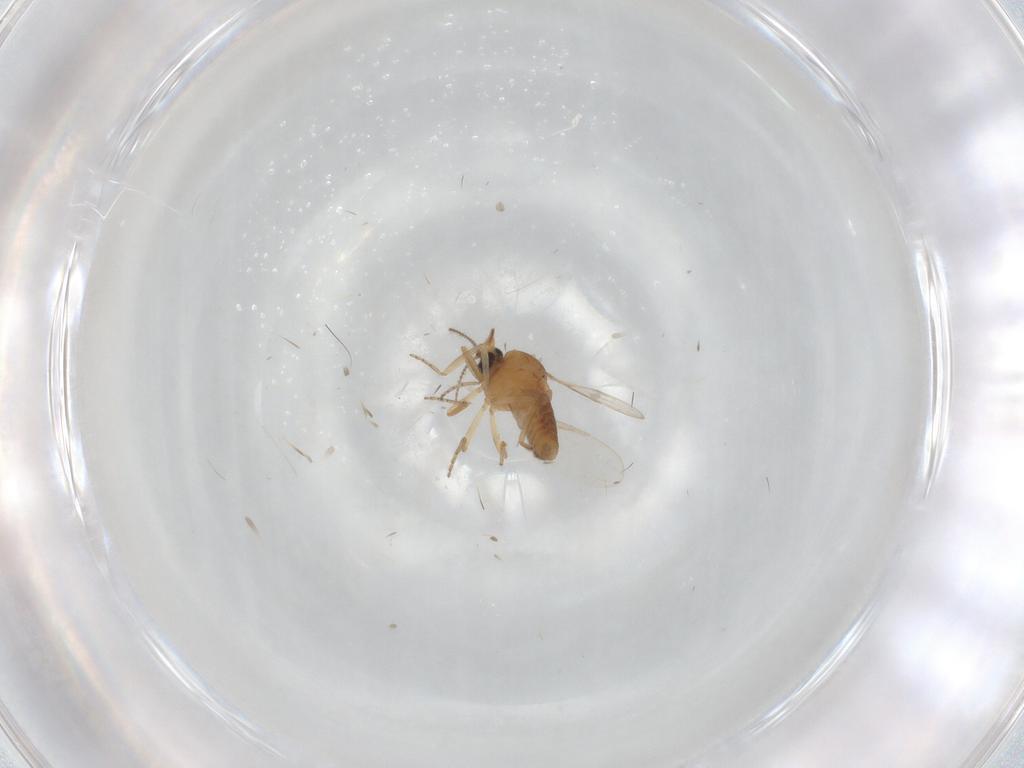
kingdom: Animalia
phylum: Arthropoda
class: Insecta
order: Diptera
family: Ceratopogonidae
